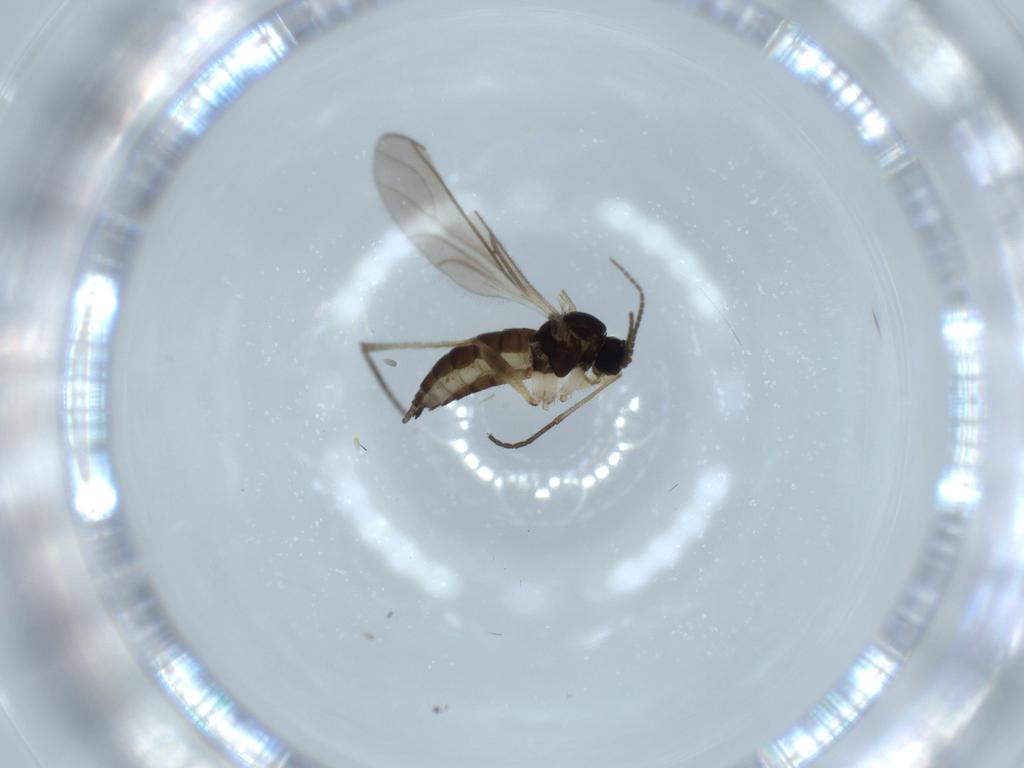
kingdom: Animalia
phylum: Arthropoda
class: Insecta
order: Diptera
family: Sciaridae
